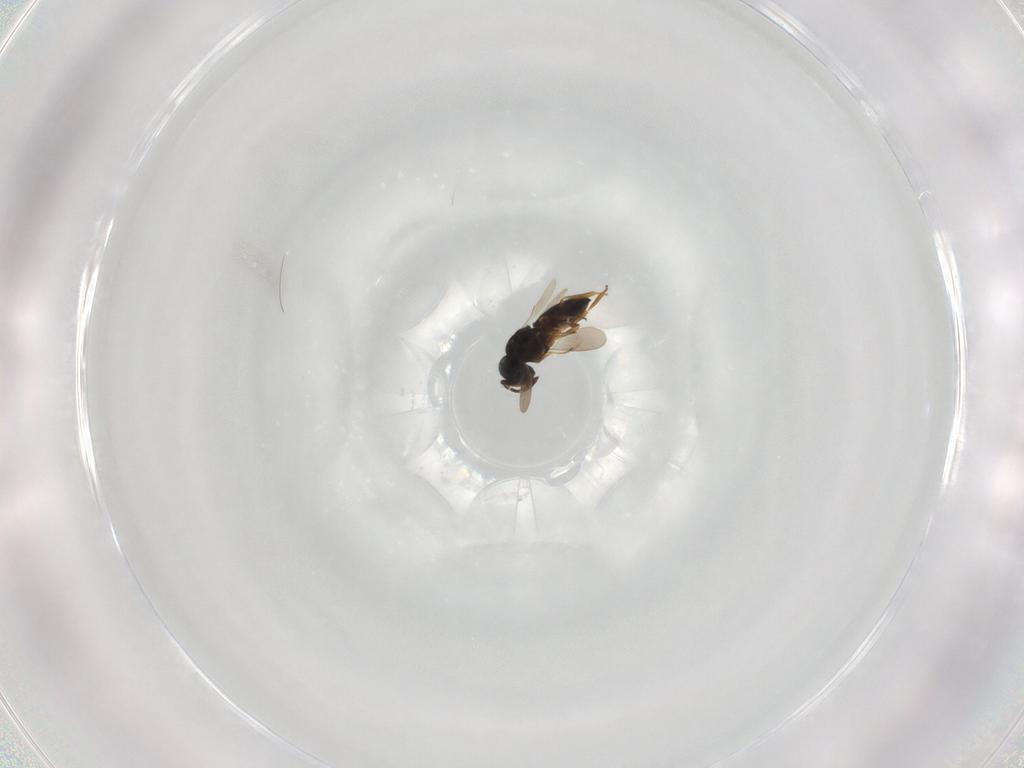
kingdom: Animalia
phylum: Arthropoda
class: Insecta
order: Hymenoptera
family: Scelionidae
